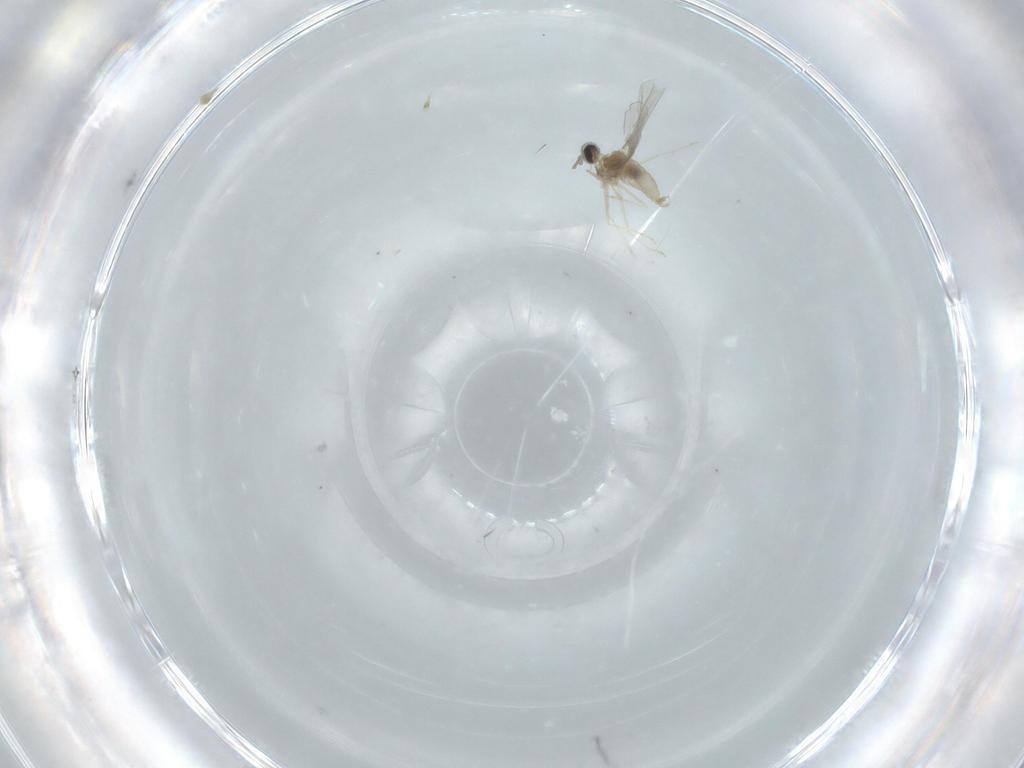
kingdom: Animalia
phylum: Arthropoda
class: Insecta
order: Diptera
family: Cecidomyiidae
